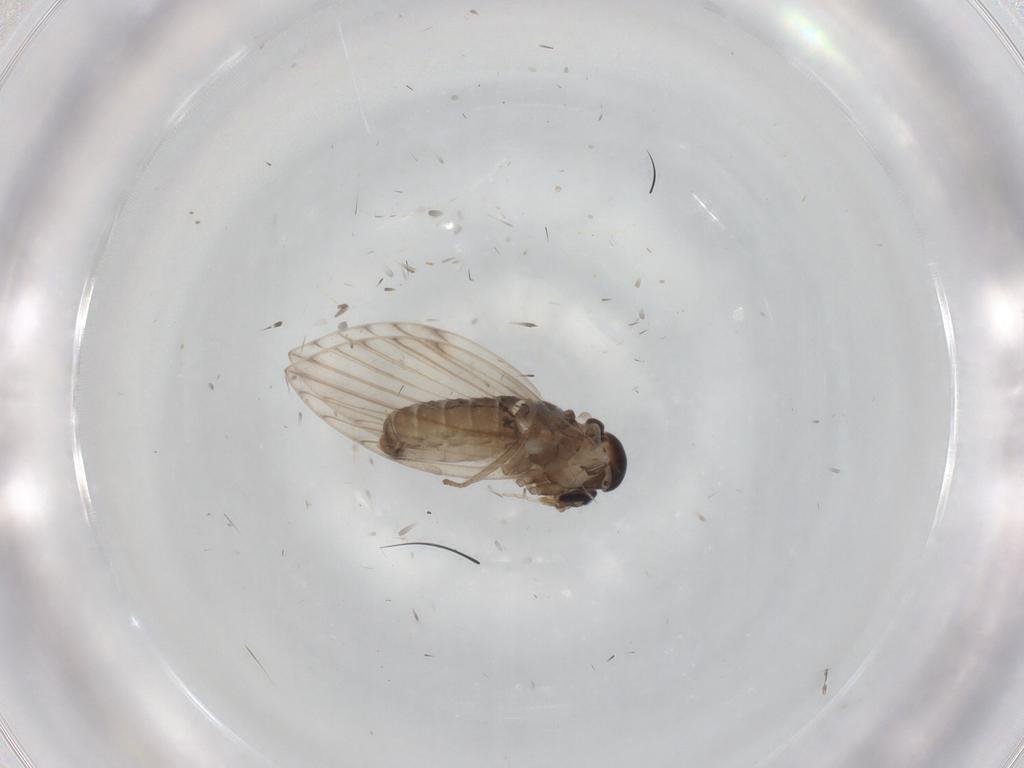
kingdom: Animalia
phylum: Arthropoda
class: Insecta
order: Diptera
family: Psychodidae
